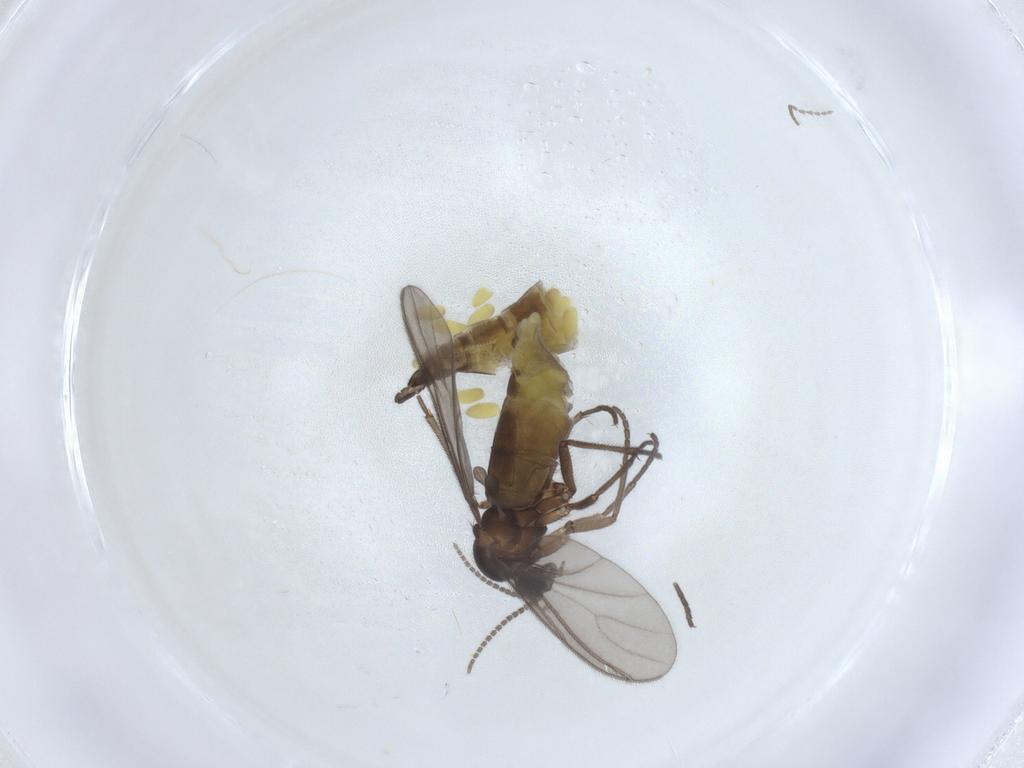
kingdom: Animalia
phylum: Arthropoda
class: Insecta
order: Diptera
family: Sciaridae
